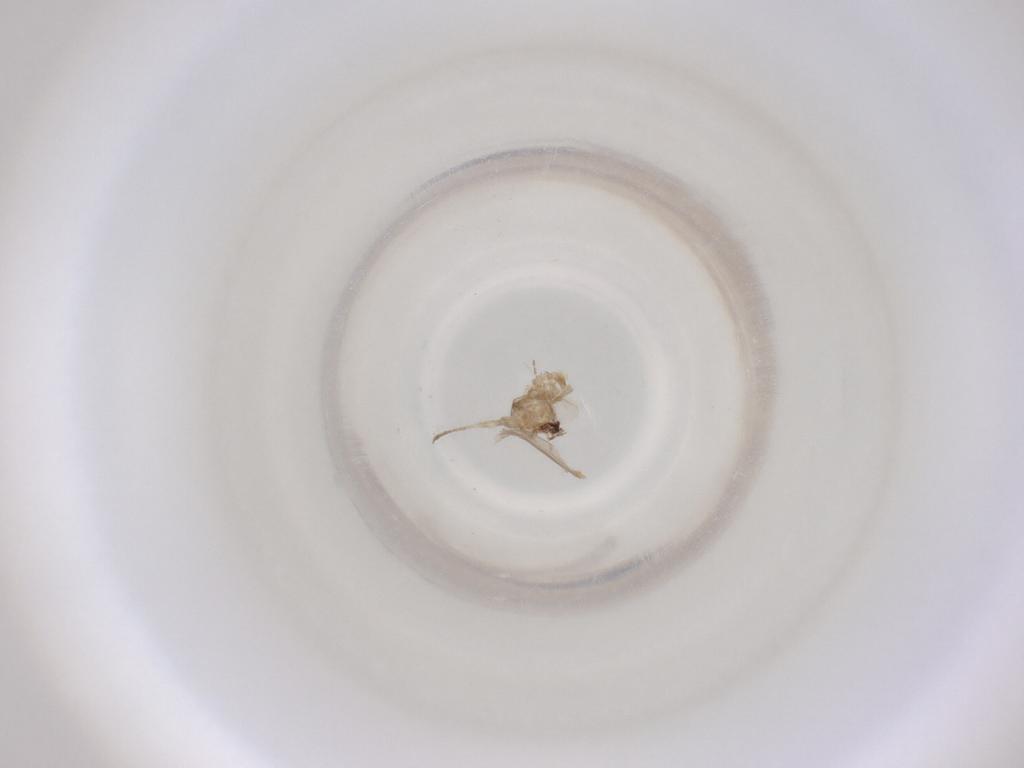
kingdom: Animalia
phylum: Arthropoda
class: Insecta
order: Diptera
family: Cecidomyiidae
